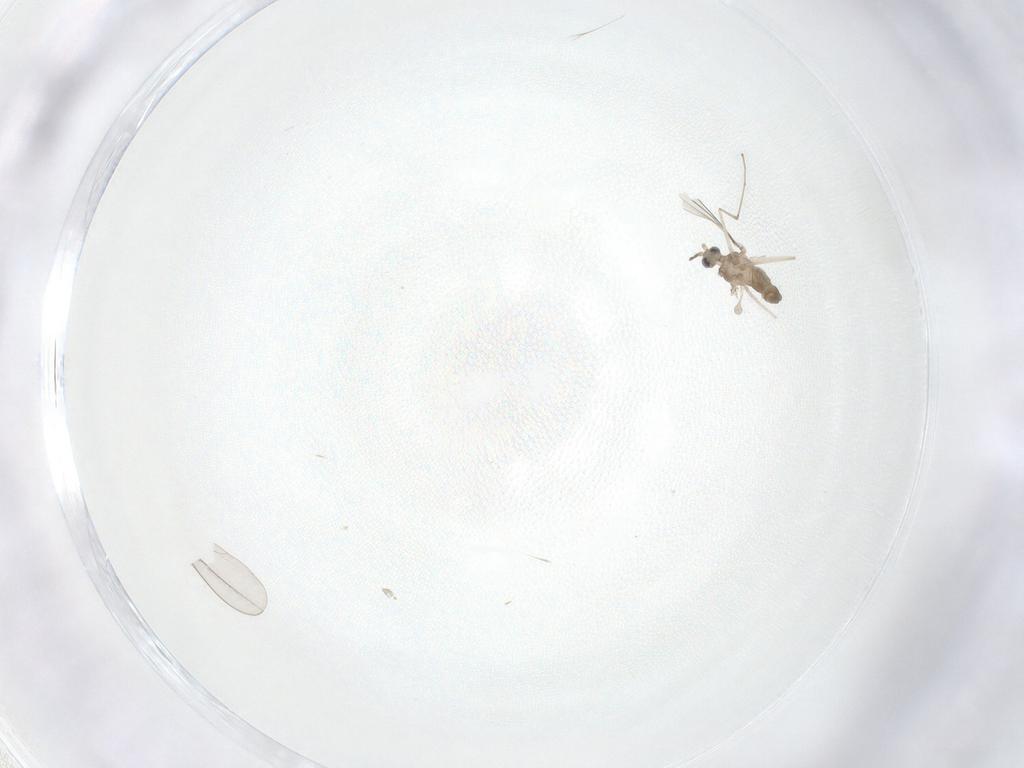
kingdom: Animalia
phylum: Arthropoda
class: Insecta
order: Diptera
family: Cecidomyiidae
